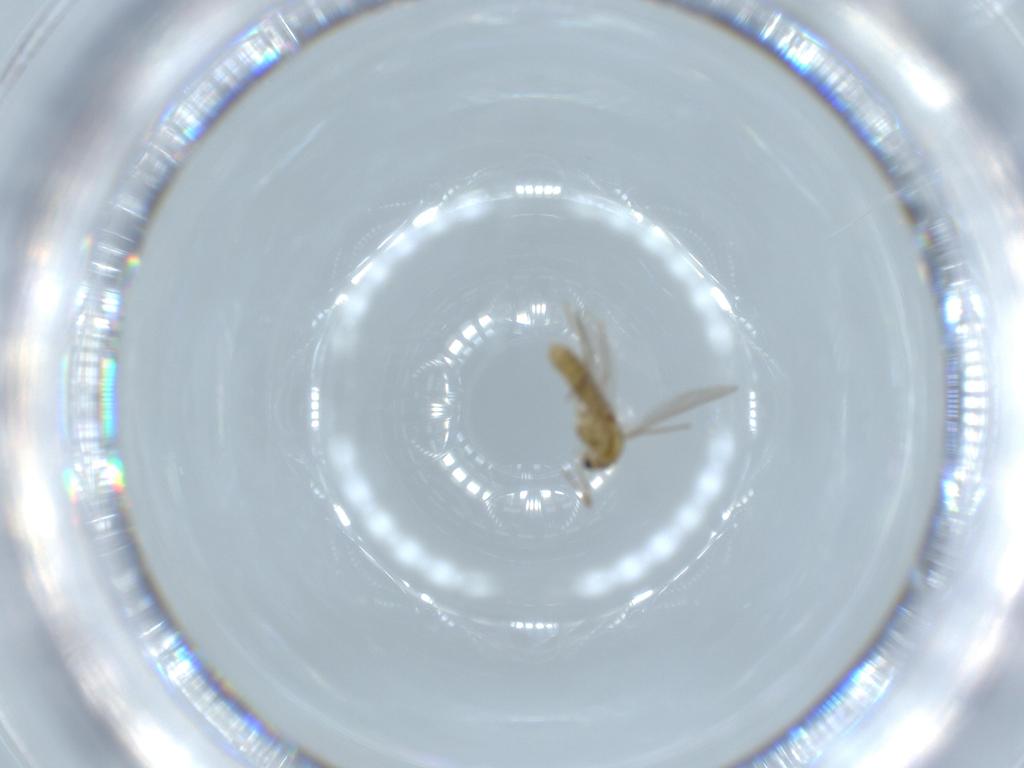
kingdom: Animalia
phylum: Arthropoda
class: Insecta
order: Diptera
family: Chironomidae
